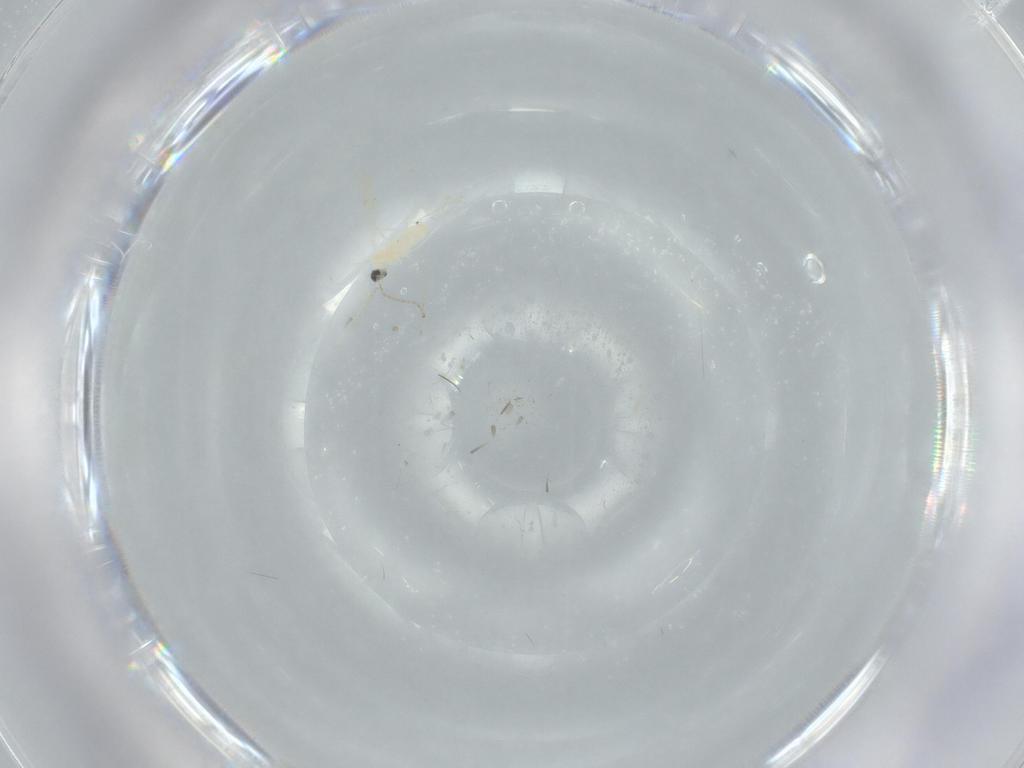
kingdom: Animalia
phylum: Arthropoda
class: Insecta
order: Diptera
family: Cecidomyiidae
